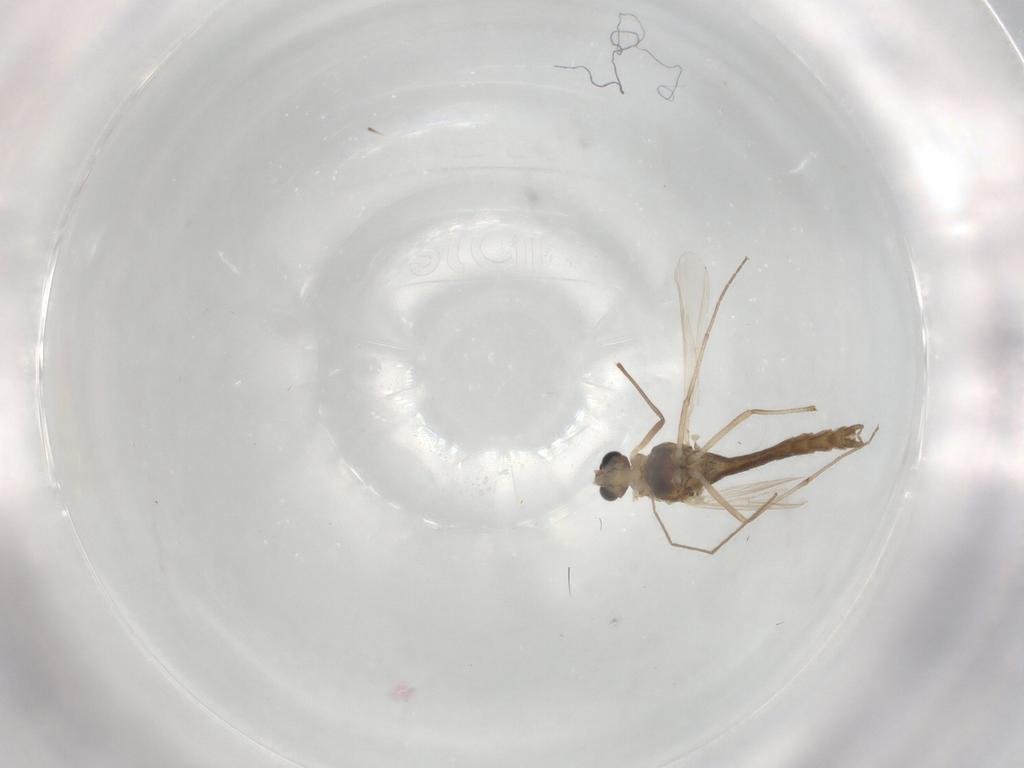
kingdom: Animalia
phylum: Arthropoda
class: Insecta
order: Diptera
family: Chironomidae
